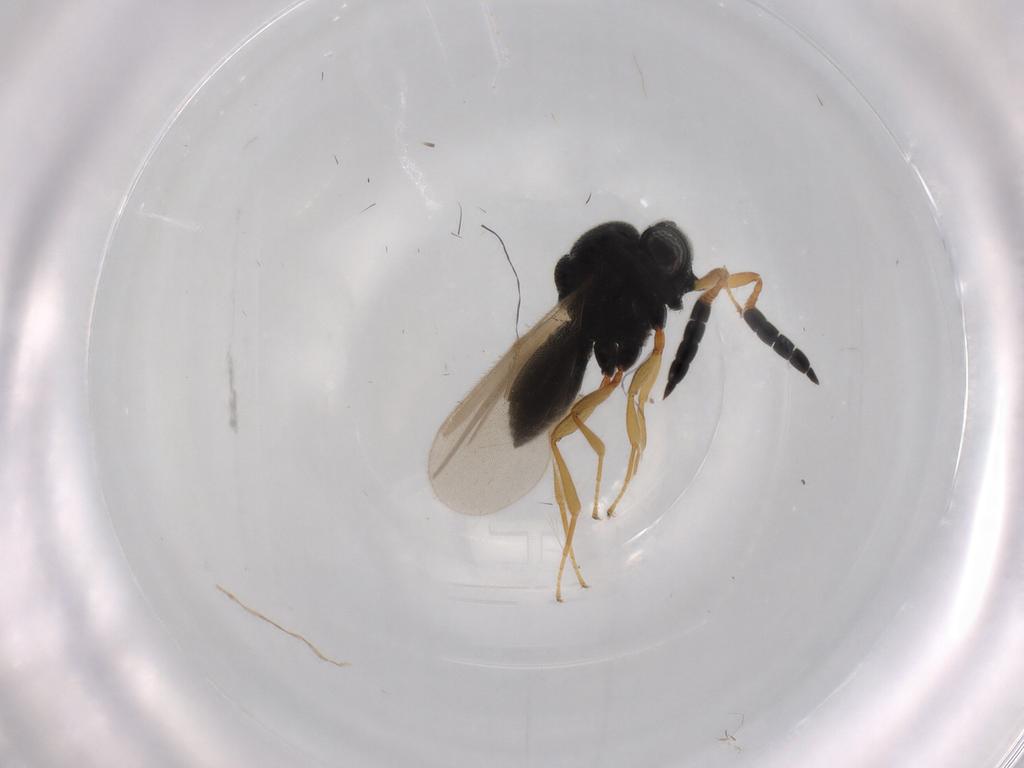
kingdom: Animalia
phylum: Arthropoda
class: Insecta
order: Hymenoptera
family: Scelionidae
